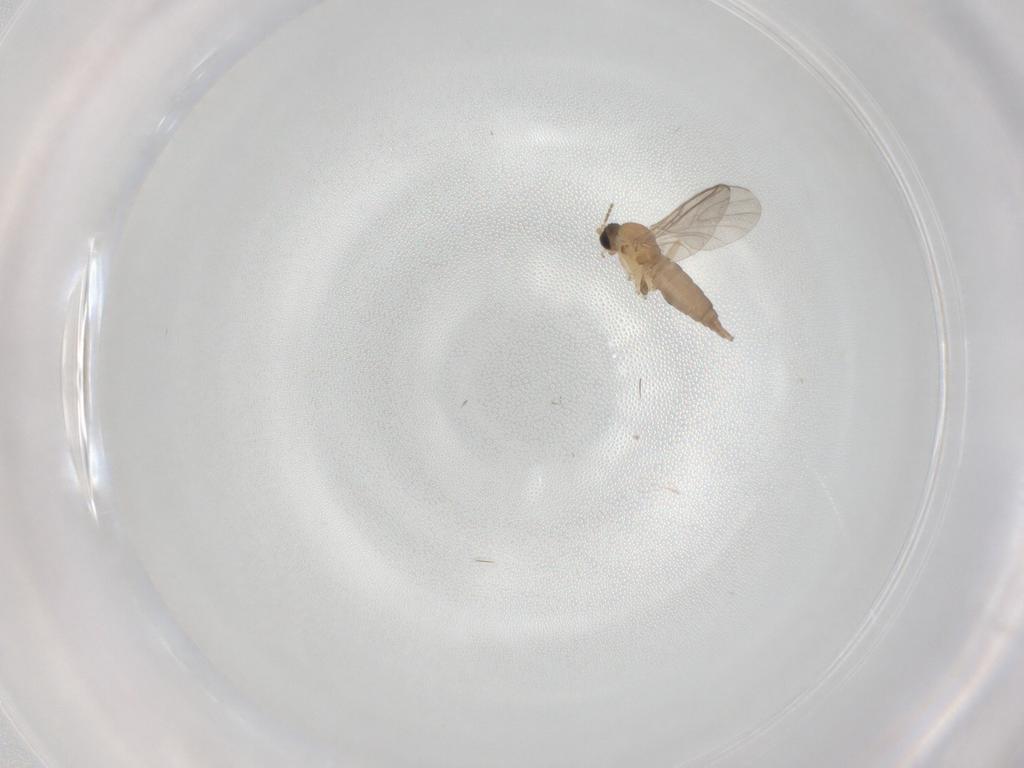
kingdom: Animalia
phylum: Arthropoda
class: Insecta
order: Diptera
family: Sciaridae
